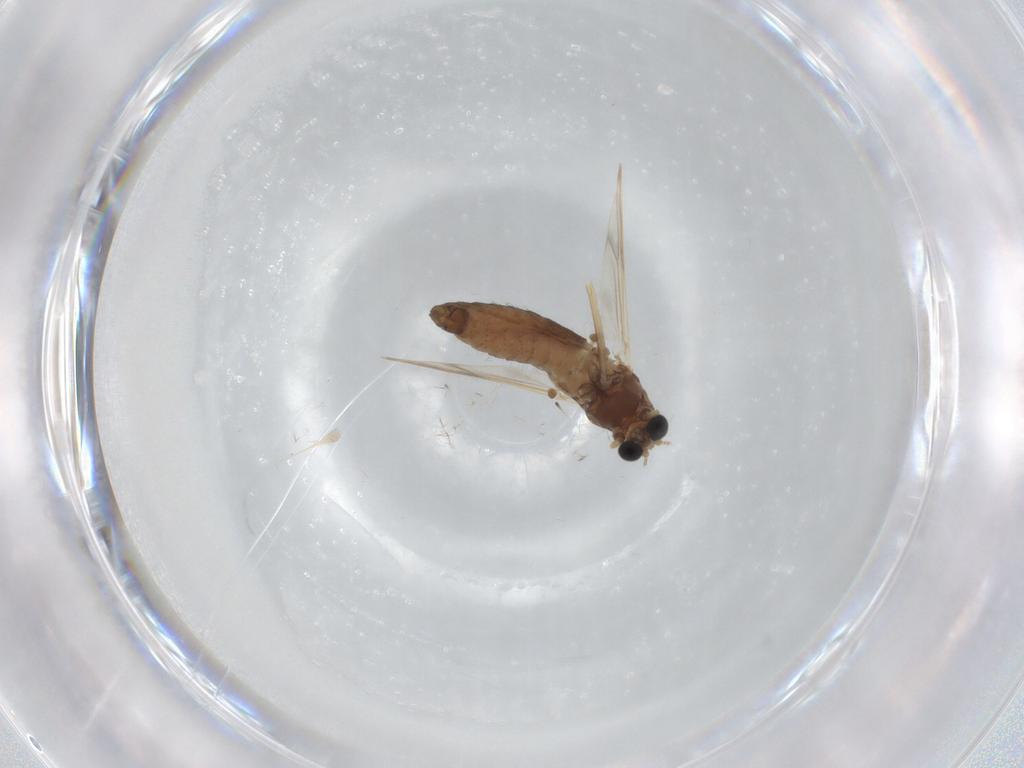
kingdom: Animalia
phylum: Arthropoda
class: Insecta
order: Diptera
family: Chironomidae
